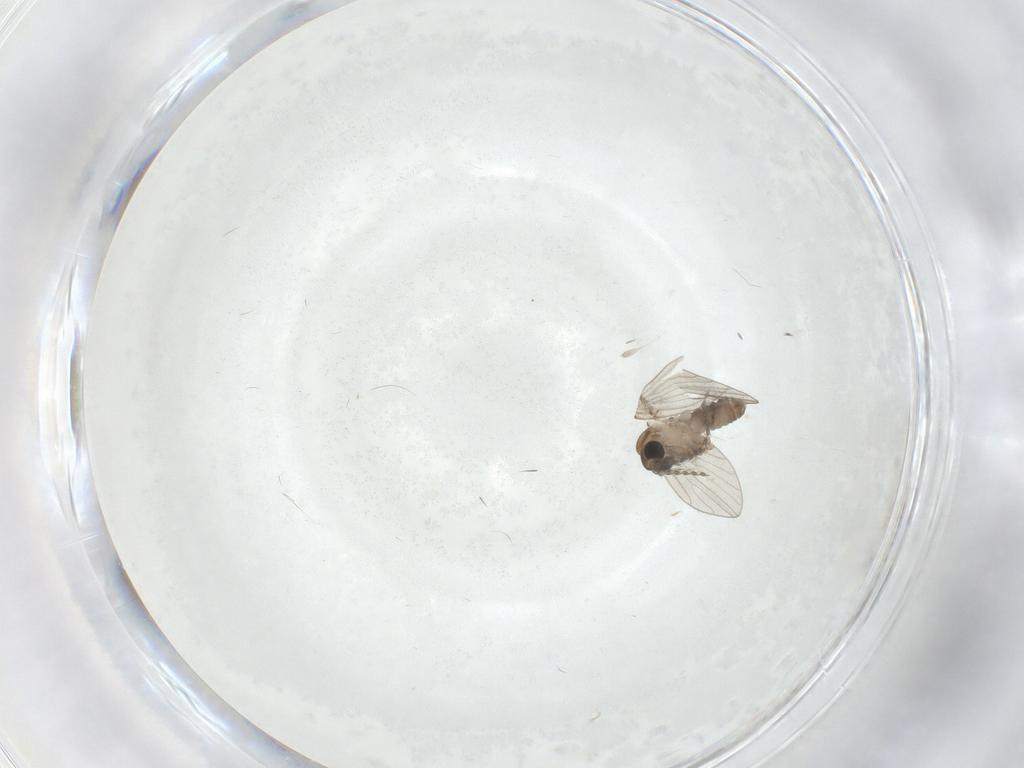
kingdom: Animalia
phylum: Arthropoda
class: Insecta
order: Diptera
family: Psychodidae
